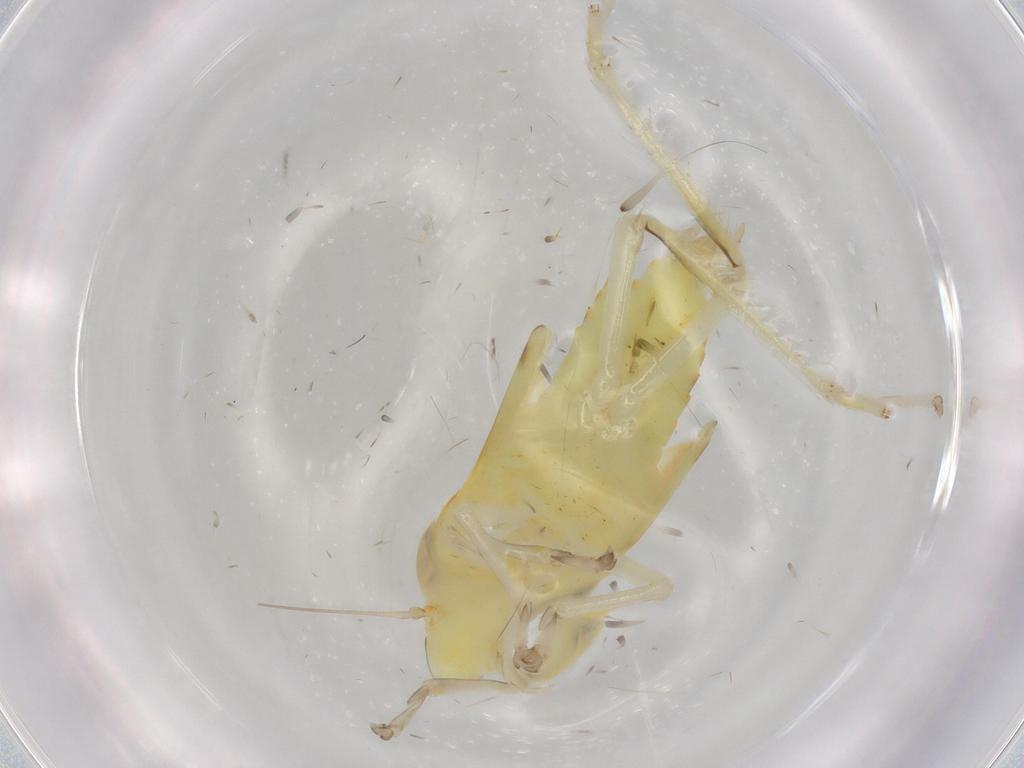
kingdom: Animalia
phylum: Arthropoda
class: Insecta
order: Hemiptera
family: Cicadellidae
